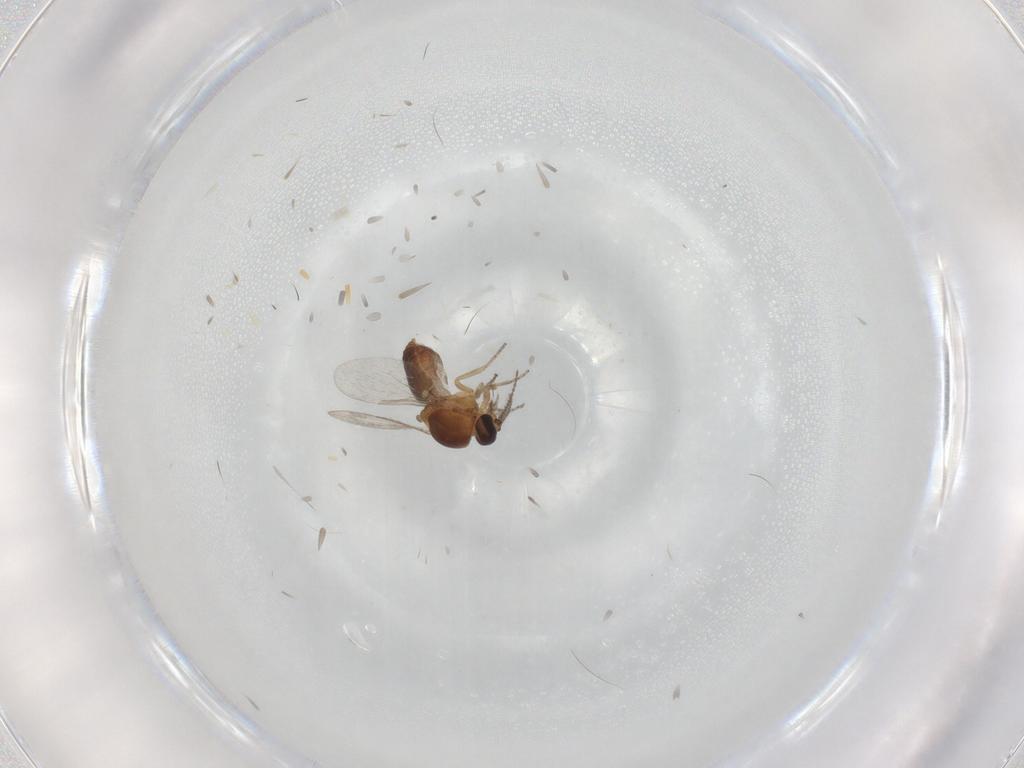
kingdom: Animalia
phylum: Arthropoda
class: Insecta
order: Diptera
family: Ceratopogonidae
